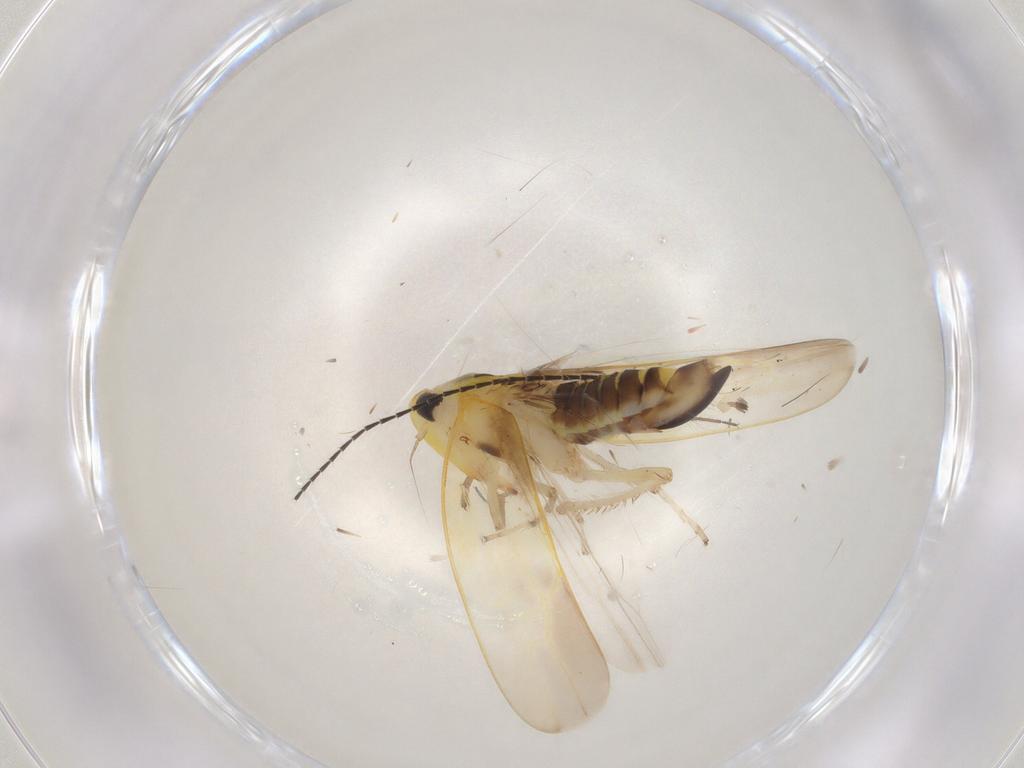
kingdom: Animalia
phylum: Arthropoda
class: Insecta
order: Hemiptera
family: Cicadellidae
